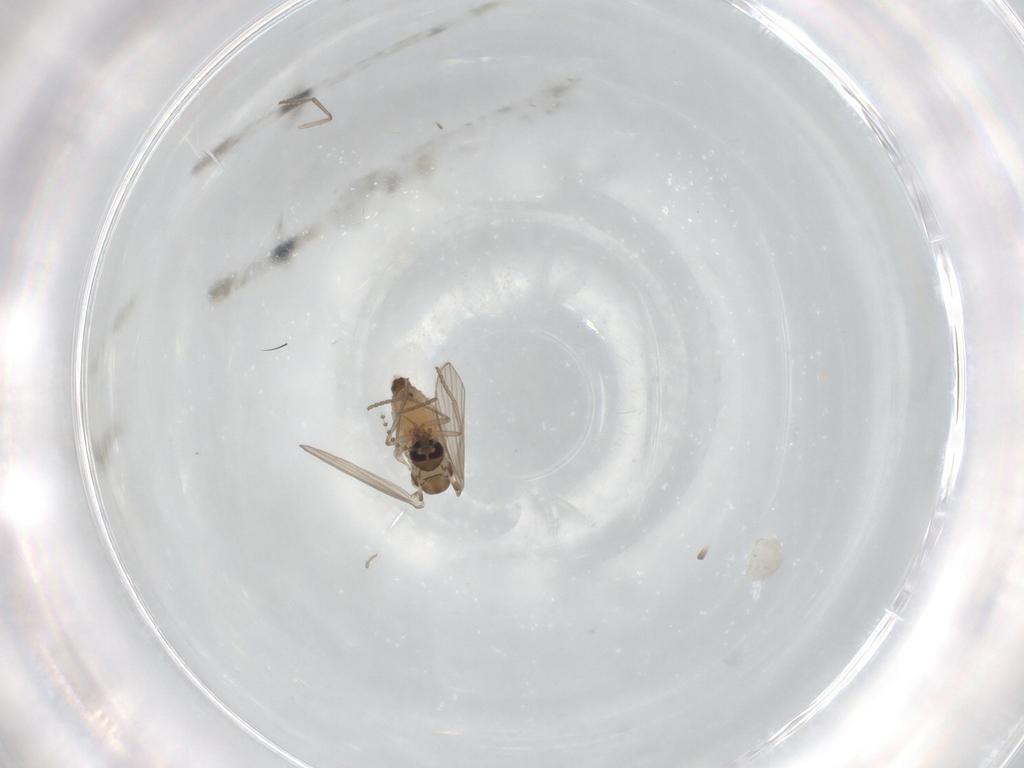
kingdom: Animalia
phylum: Arthropoda
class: Insecta
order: Diptera
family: Psychodidae
